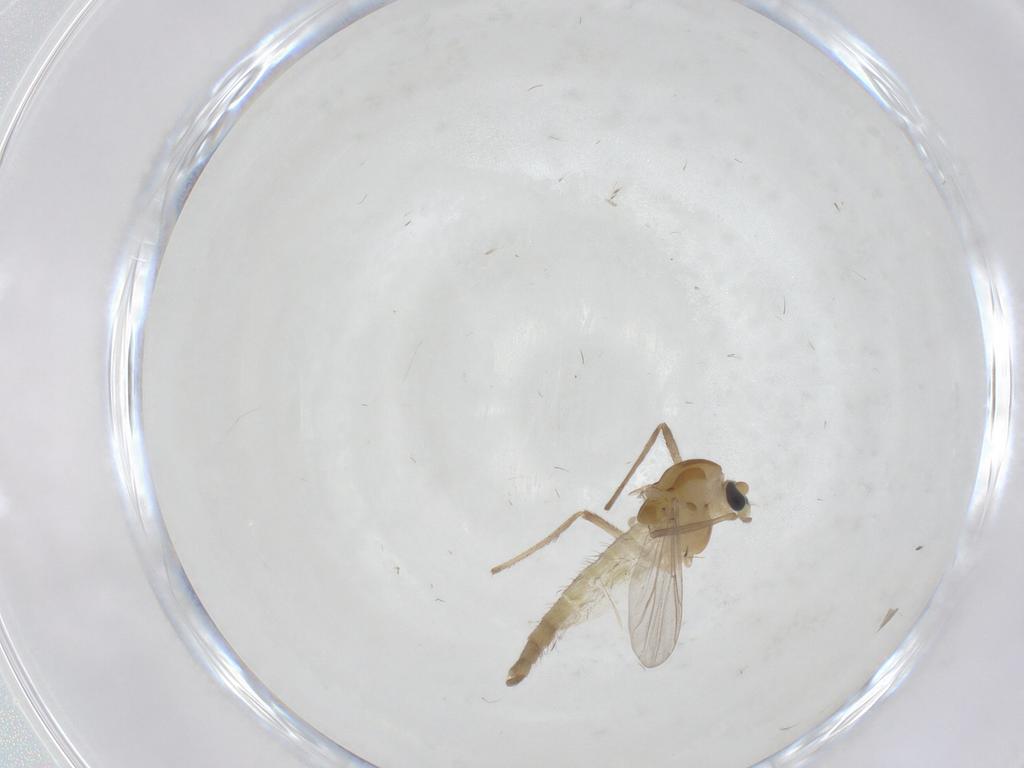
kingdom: Animalia
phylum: Arthropoda
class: Insecta
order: Diptera
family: Chironomidae
